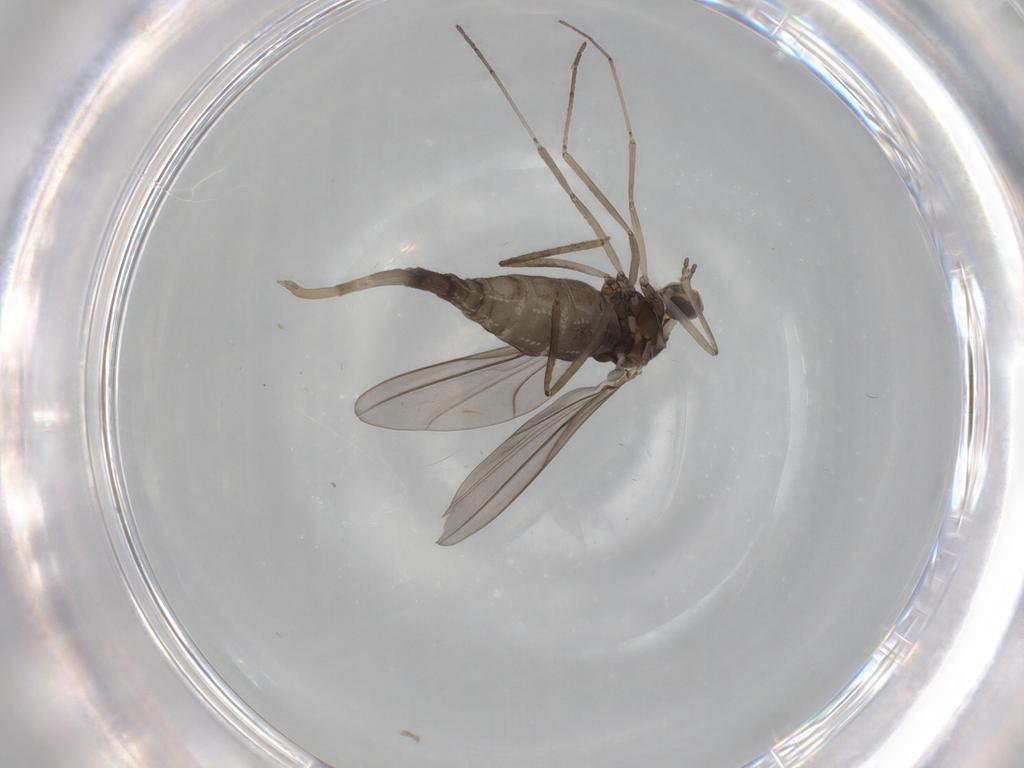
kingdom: Animalia
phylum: Arthropoda
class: Insecta
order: Diptera
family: Cecidomyiidae
